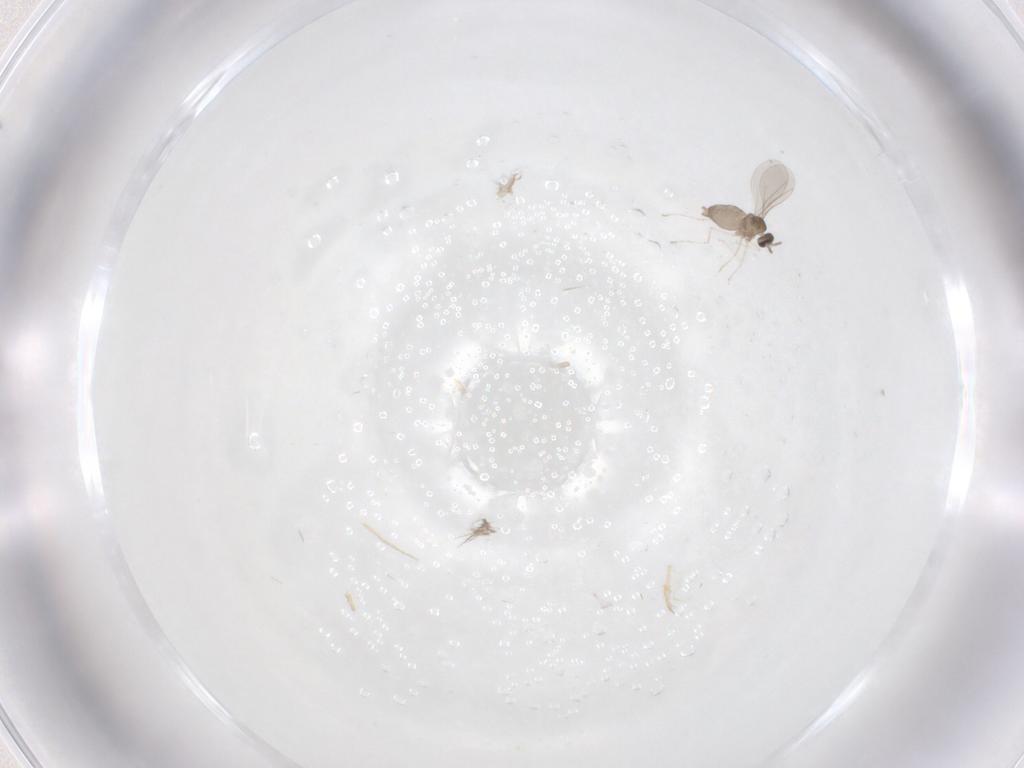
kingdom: Animalia
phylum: Arthropoda
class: Insecta
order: Diptera
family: Cecidomyiidae
